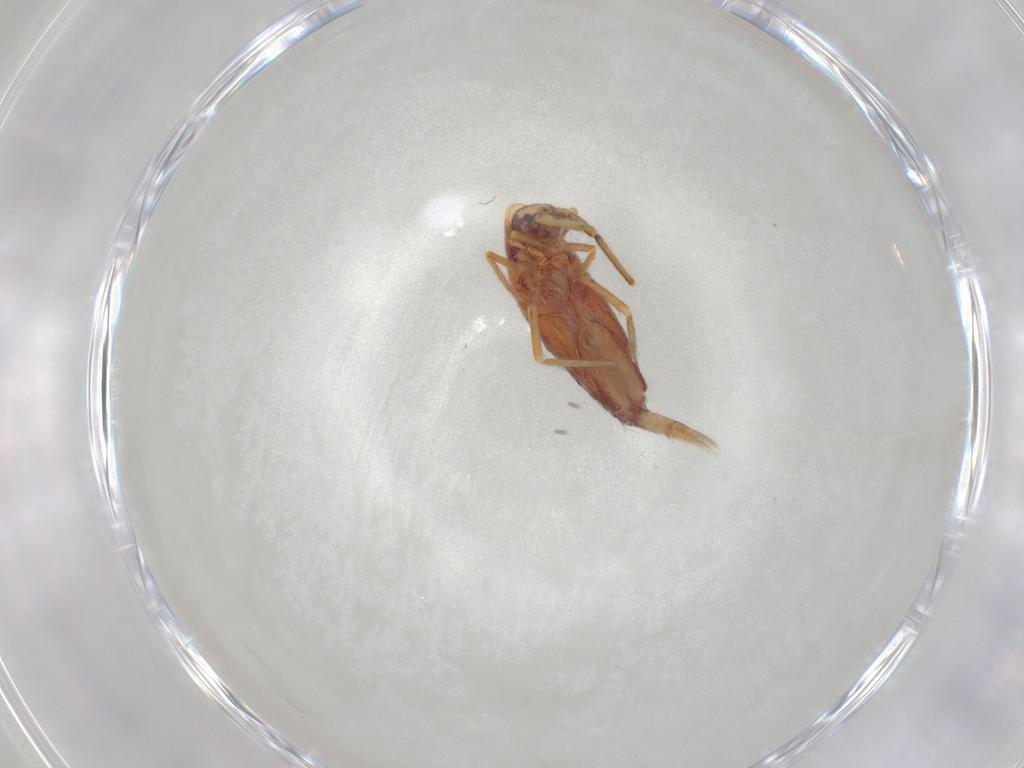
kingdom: Animalia
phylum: Arthropoda
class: Collembola
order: Entomobryomorpha
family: Entomobryidae
